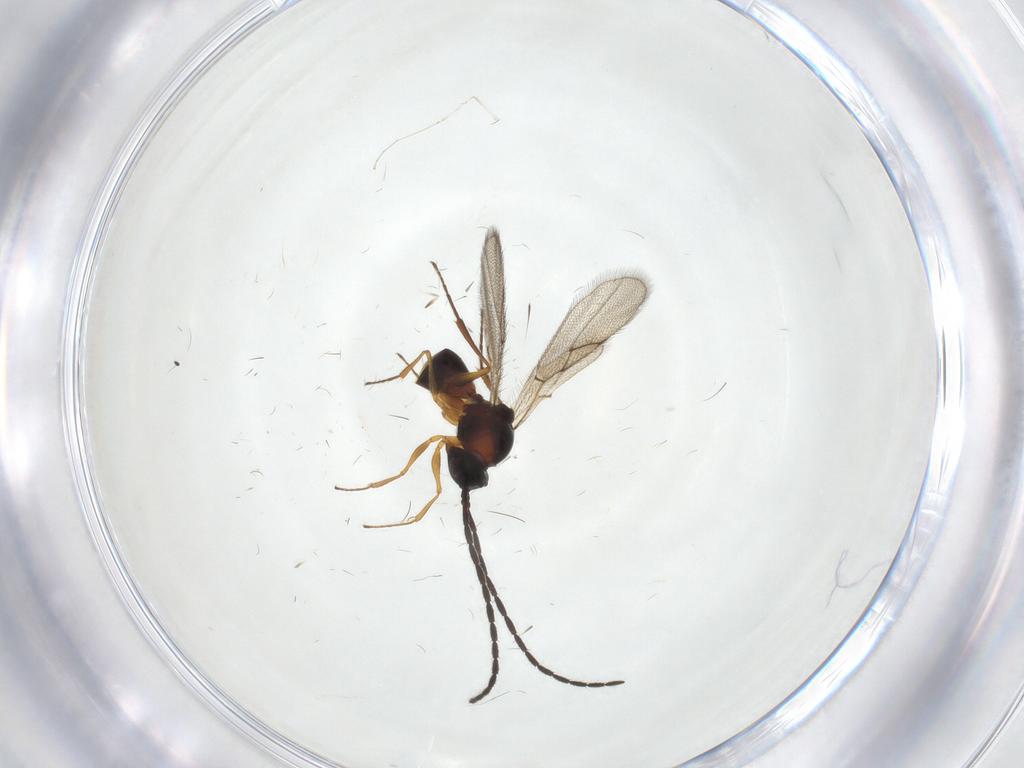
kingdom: Animalia
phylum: Arthropoda
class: Insecta
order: Hymenoptera
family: Figitidae
